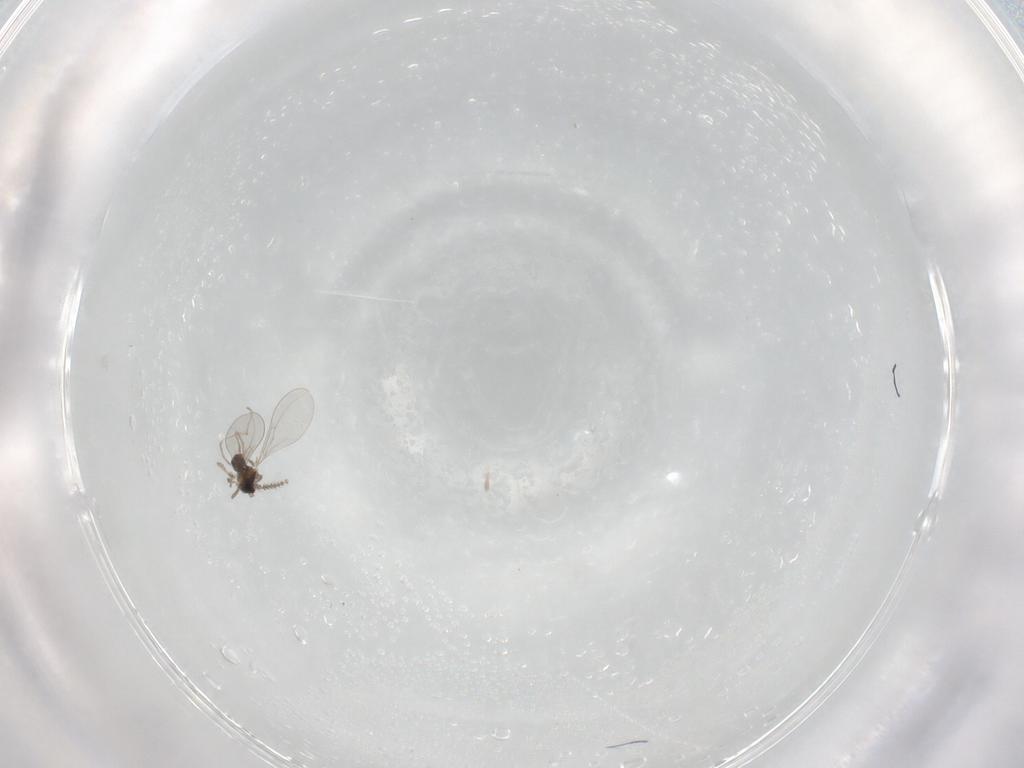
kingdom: Animalia
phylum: Arthropoda
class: Insecta
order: Diptera
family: Cecidomyiidae
